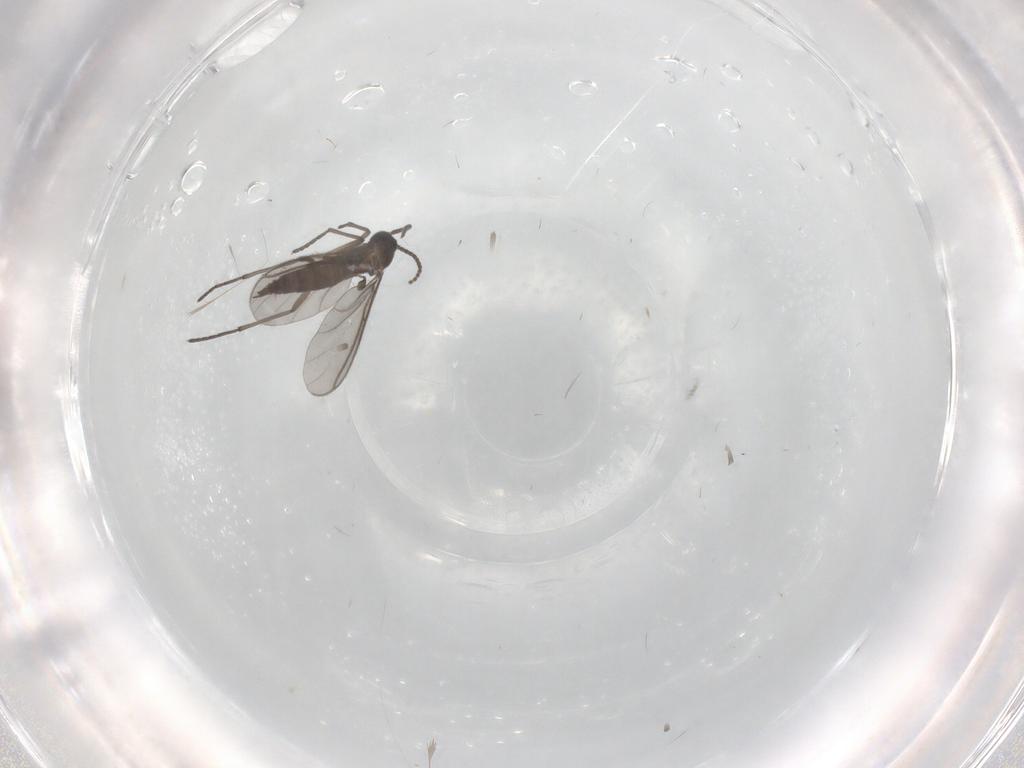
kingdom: Animalia
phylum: Arthropoda
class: Insecta
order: Diptera
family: Sciaridae
